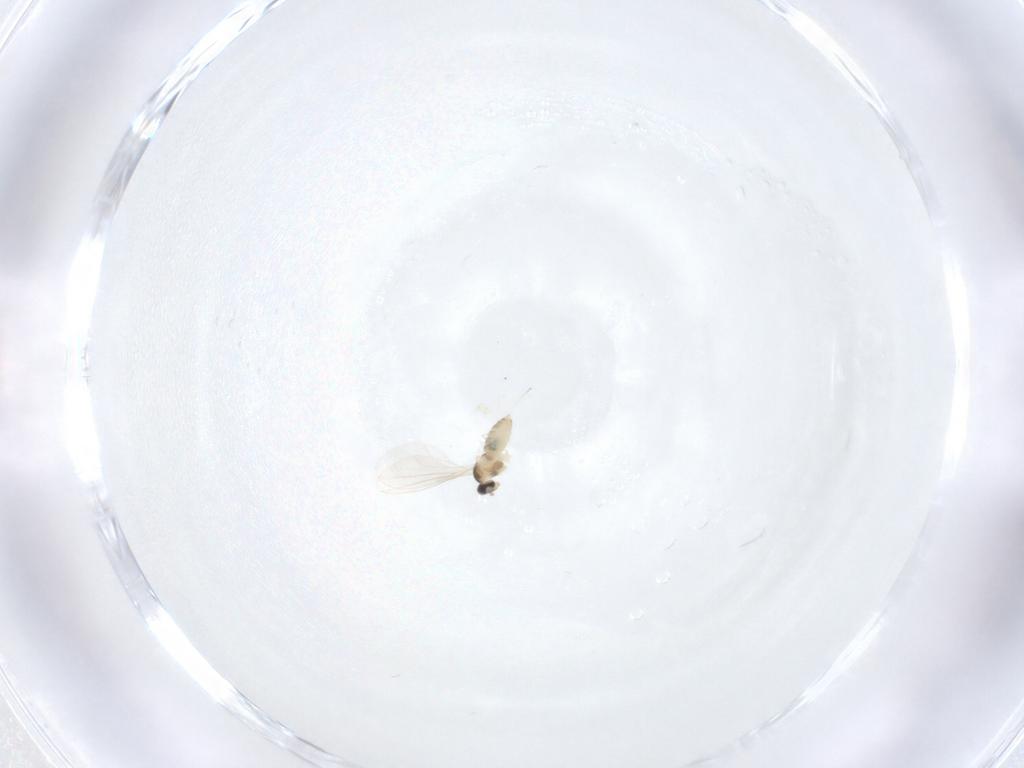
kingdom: Animalia
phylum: Arthropoda
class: Insecta
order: Diptera
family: Cecidomyiidae
